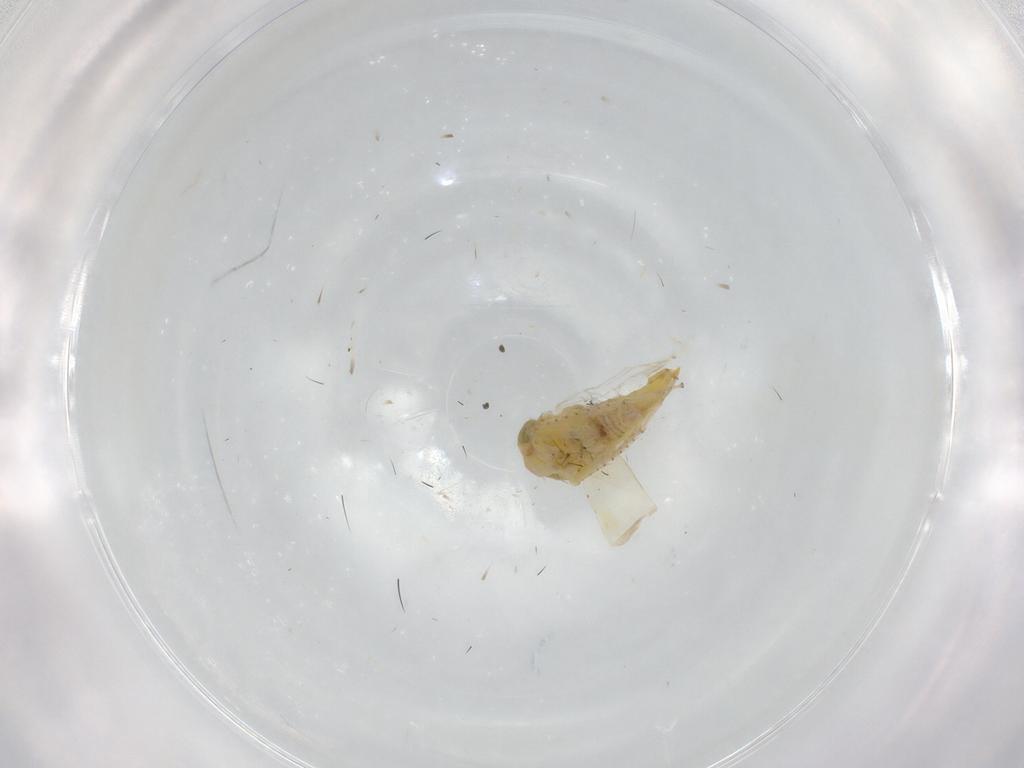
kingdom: Animalia
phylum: Arthropoda
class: Insecta
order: Hemiptera
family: Cicadellidae
